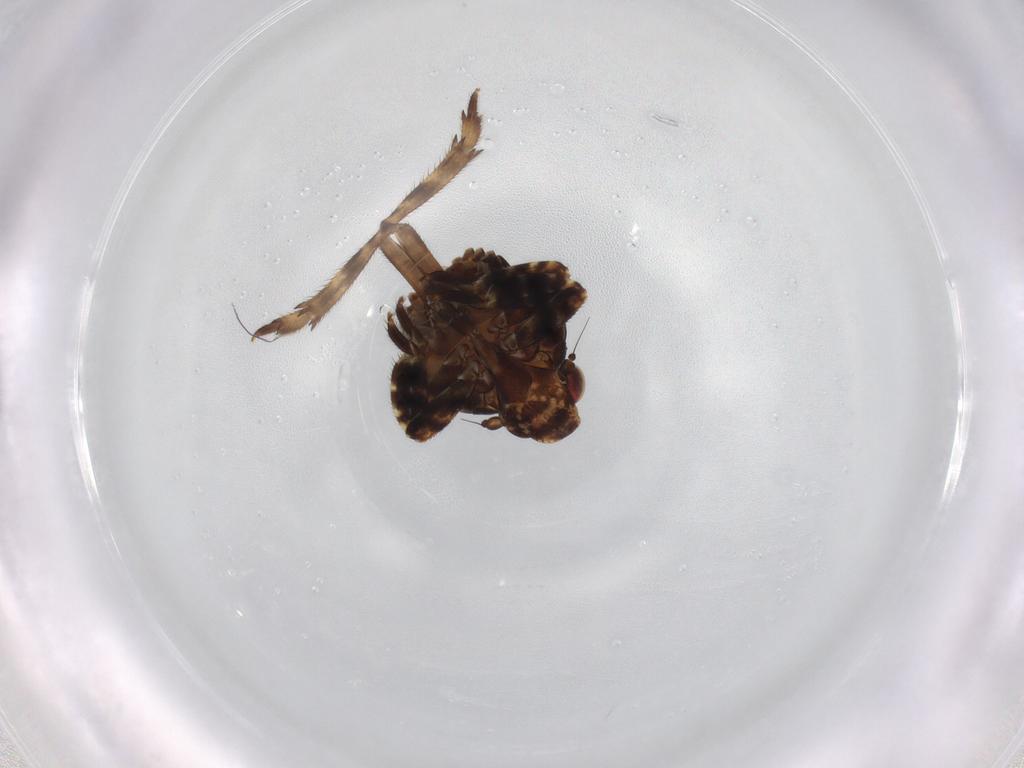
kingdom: Animalia
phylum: Arthropoda
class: Insecta
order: Hemiptera
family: Eurybrachidae
